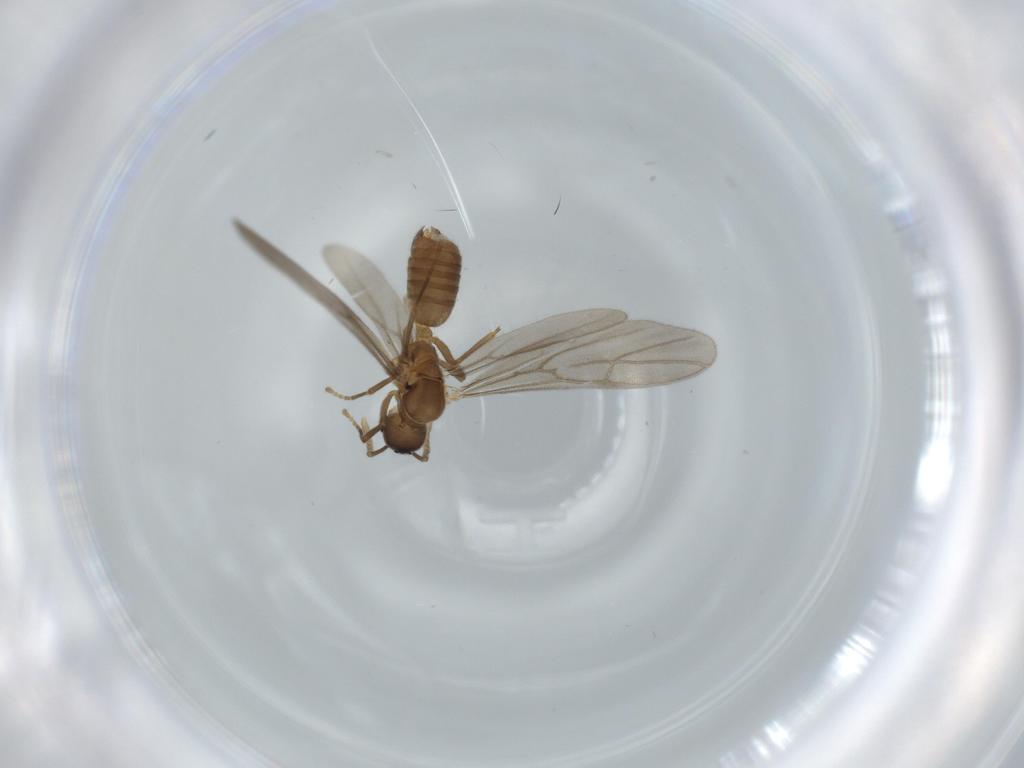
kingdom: Animalia
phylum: Arthropoda
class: Insecta
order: Hymenoptera
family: Formicidae
